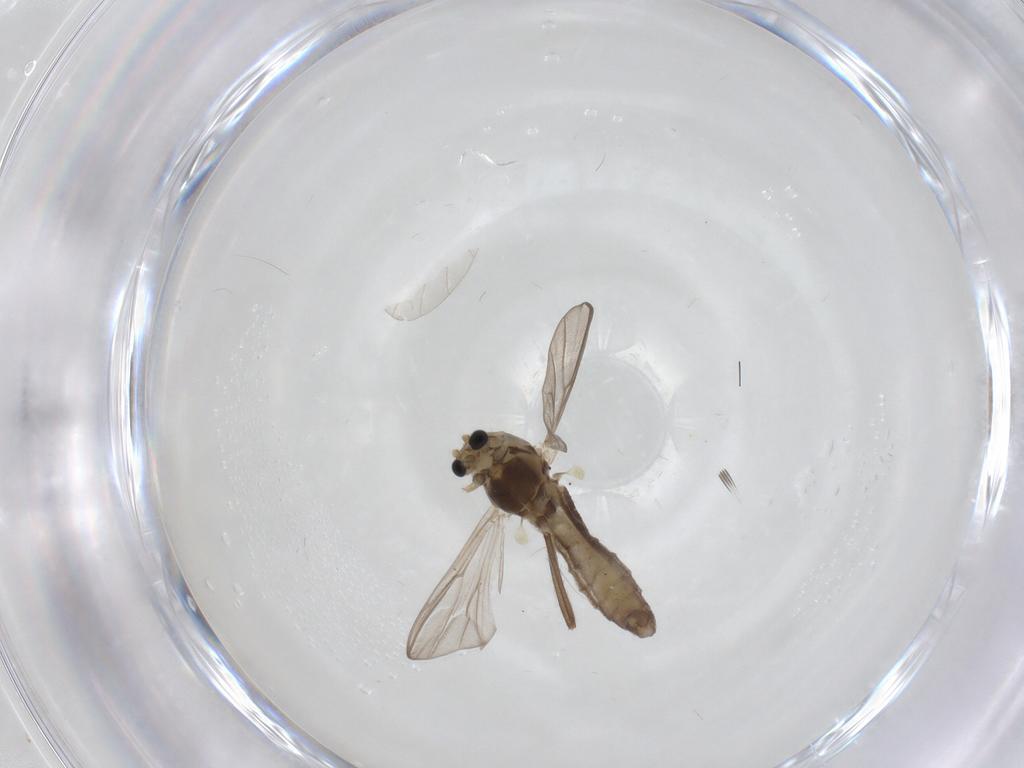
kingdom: Animalia
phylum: Arthropoda
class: Insecta
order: Diptera
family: Chironomidae
